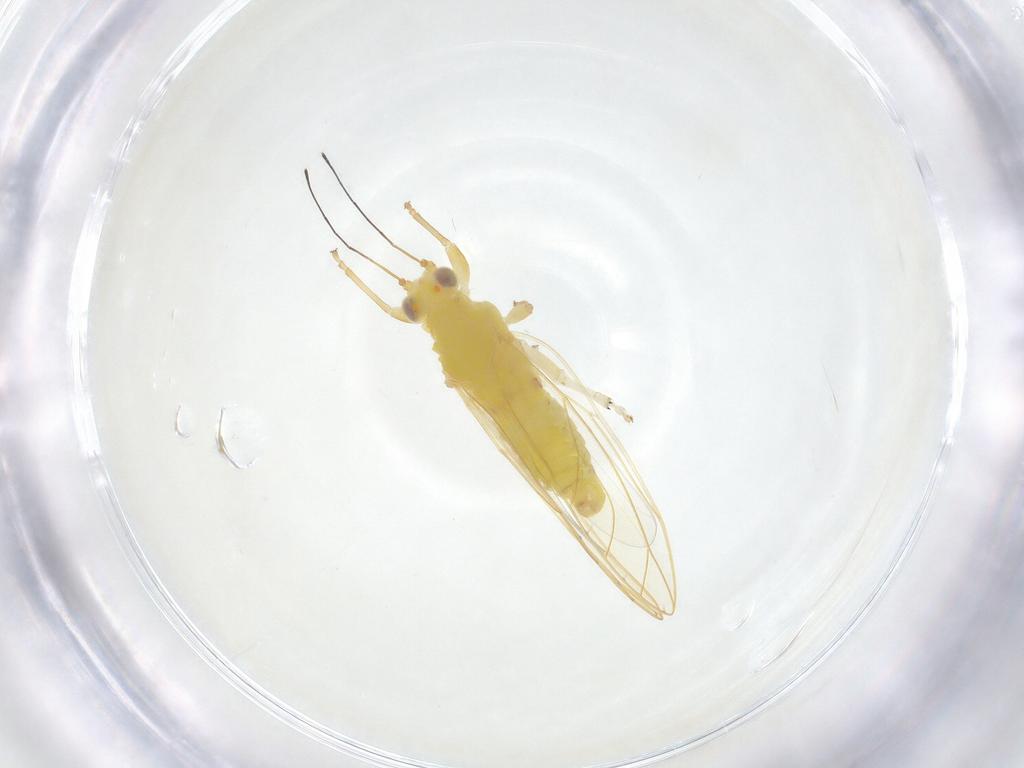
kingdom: Animalia
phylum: Arthropoda
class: Insecta
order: Hemiptera
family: Triozidae
